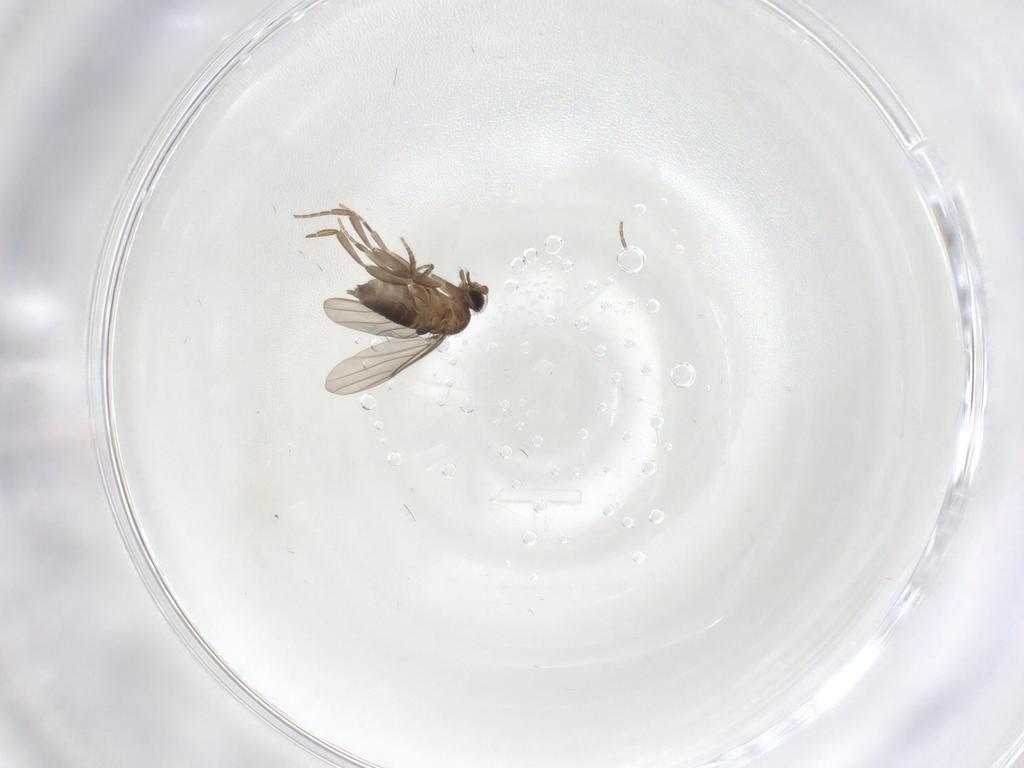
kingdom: Animalia
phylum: Arthropoda
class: Insecta
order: Diptera
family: Phoridae
